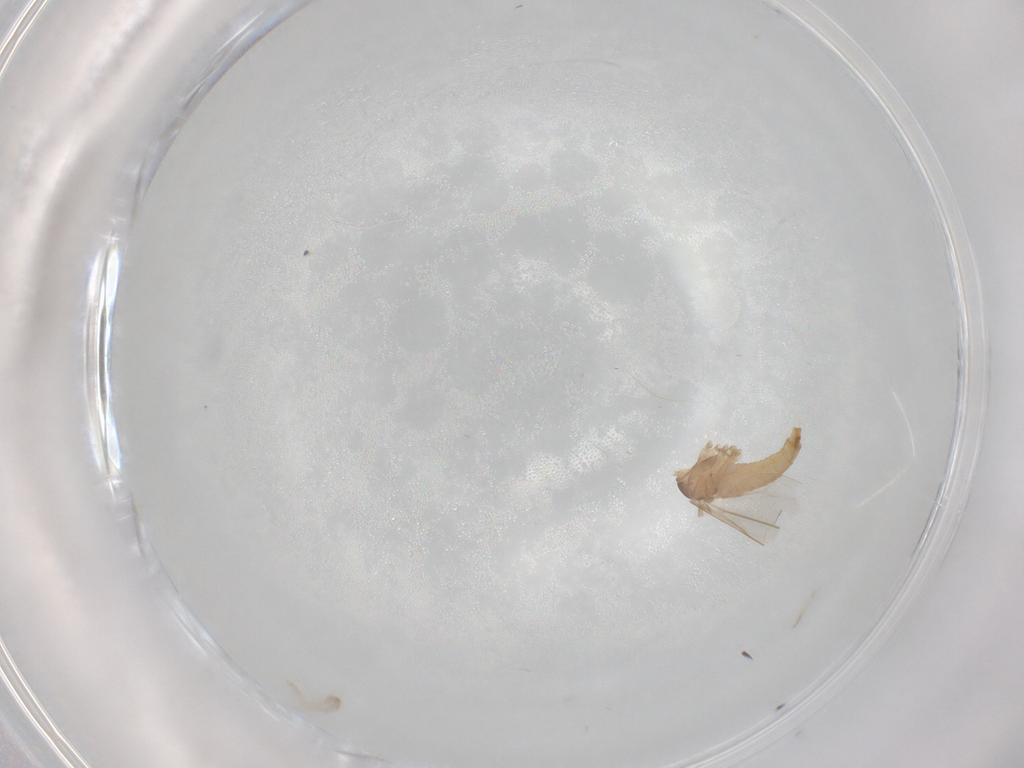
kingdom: Animalia
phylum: Arthropoda
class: Insecta
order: Diptera
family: Cecidomyiidae
